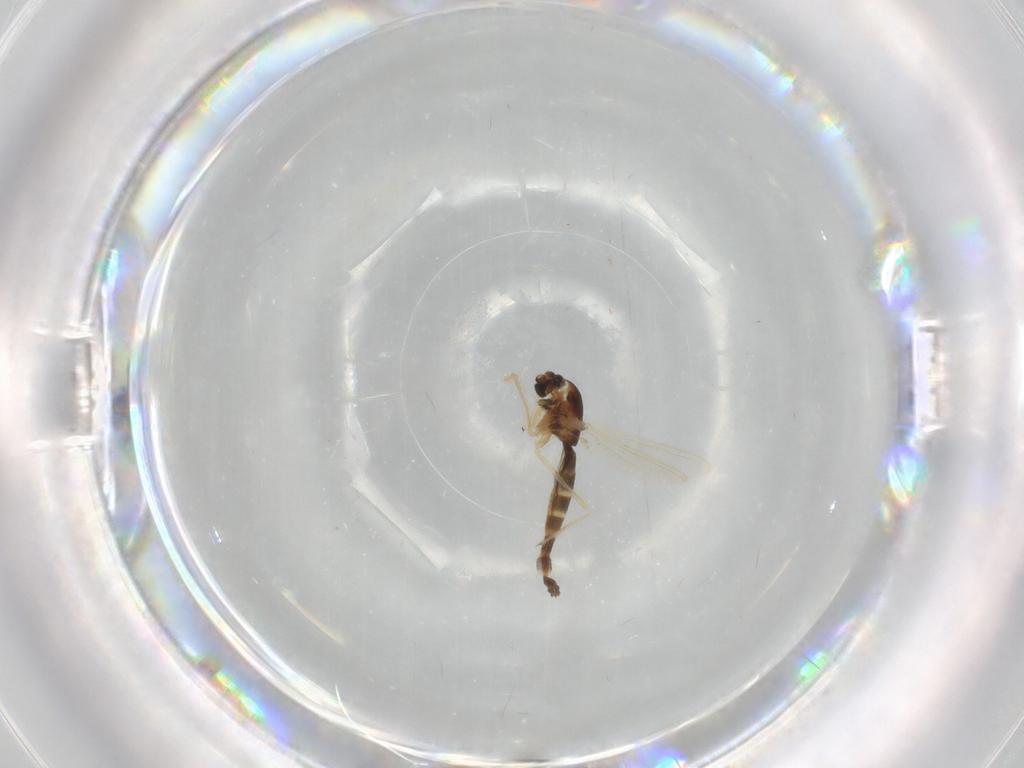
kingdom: Animalia
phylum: Arthropoda
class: Insecta
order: Diptera
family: Chironomidae
